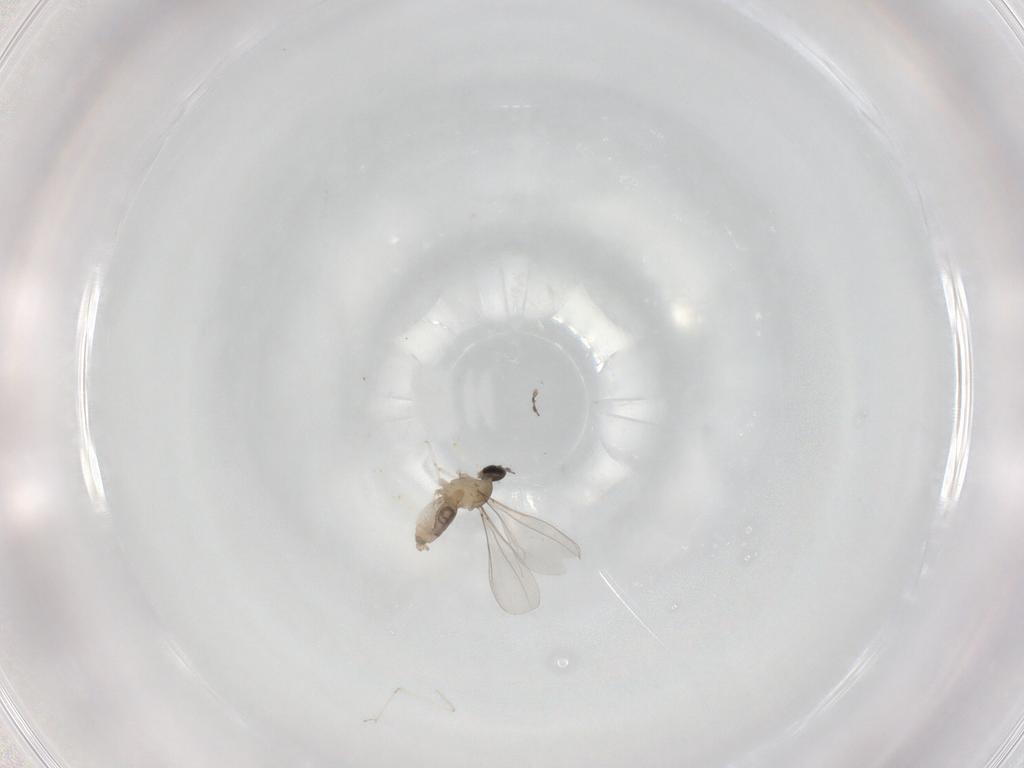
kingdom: Animalia
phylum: Arthropoda
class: Insecta
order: Diptera
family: Cecidomyiidae
